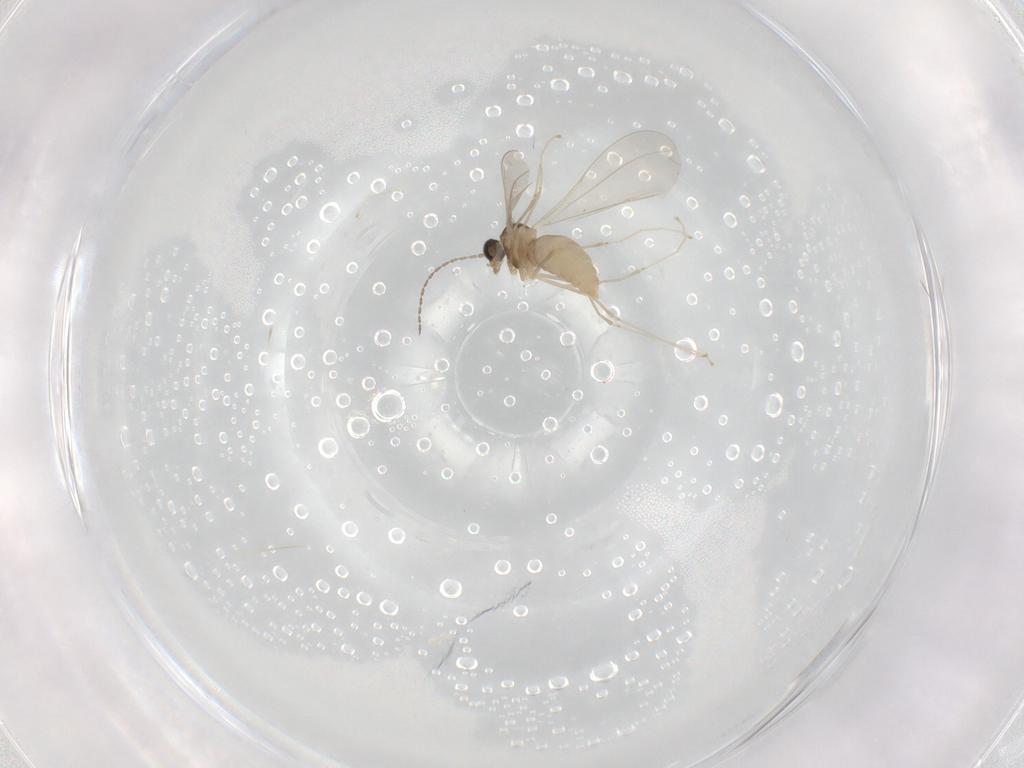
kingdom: Animalia
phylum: Arthropoda
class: Insecta
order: Diptera
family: Cecidomyiidae
